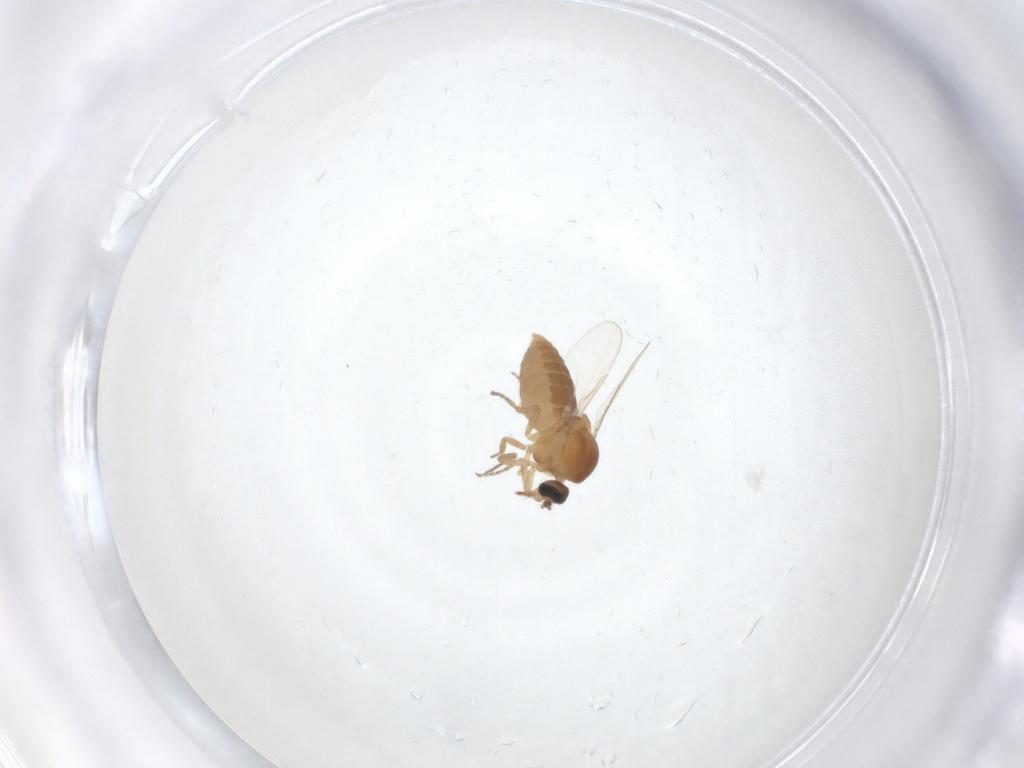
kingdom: Animalia
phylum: Arthropoda
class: Insecta
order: Diptera
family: Ceratopogonidae
